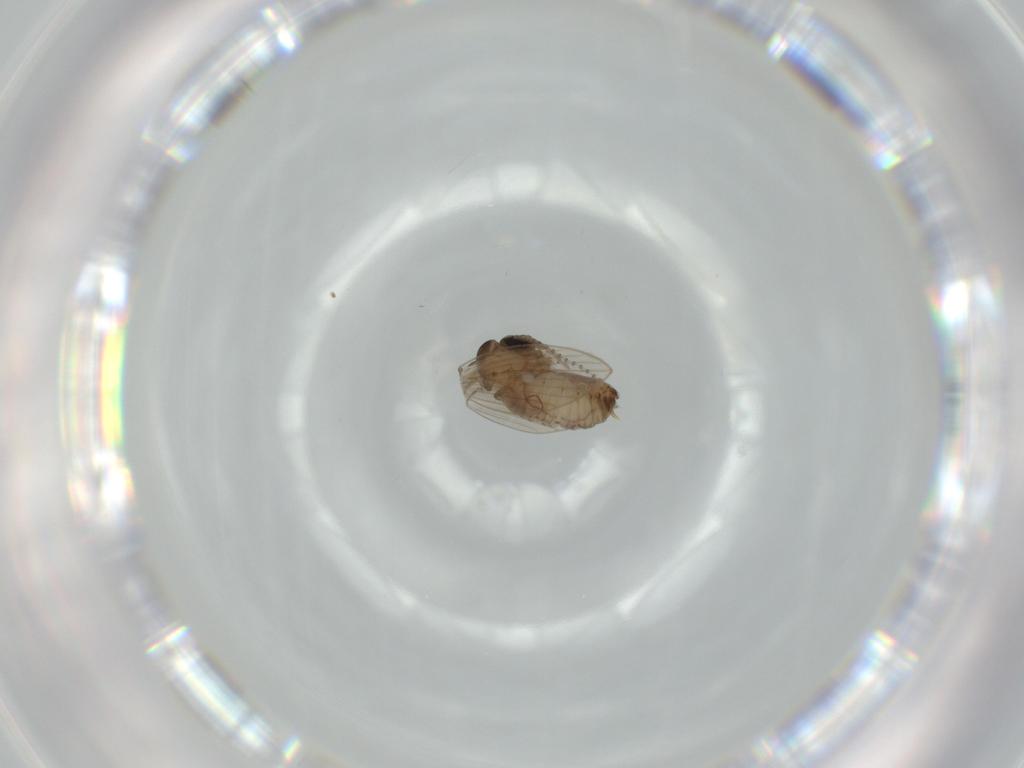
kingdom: Animalia
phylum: Arthropoda
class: Insecta
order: Diptera
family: Psychodidae
